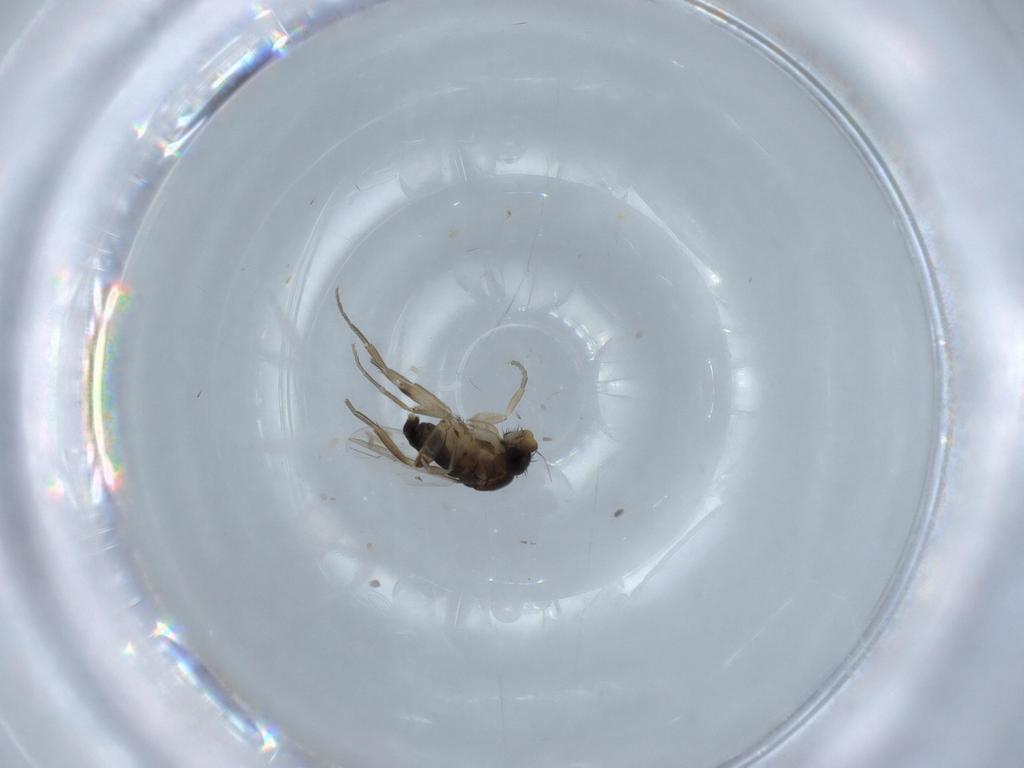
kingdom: Animalia
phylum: Arthropoda
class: Insecta
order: Diptera
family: Phoridae
